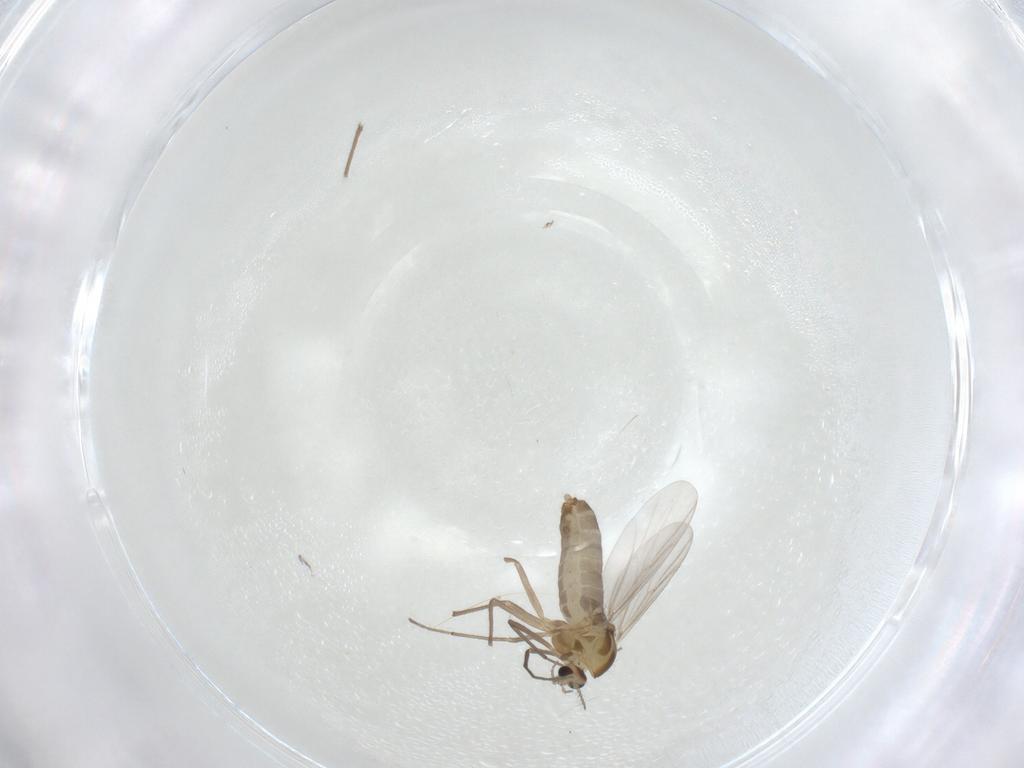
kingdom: Animalia
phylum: Arthropoda
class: Insecta
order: Diptera
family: Chironomidae
